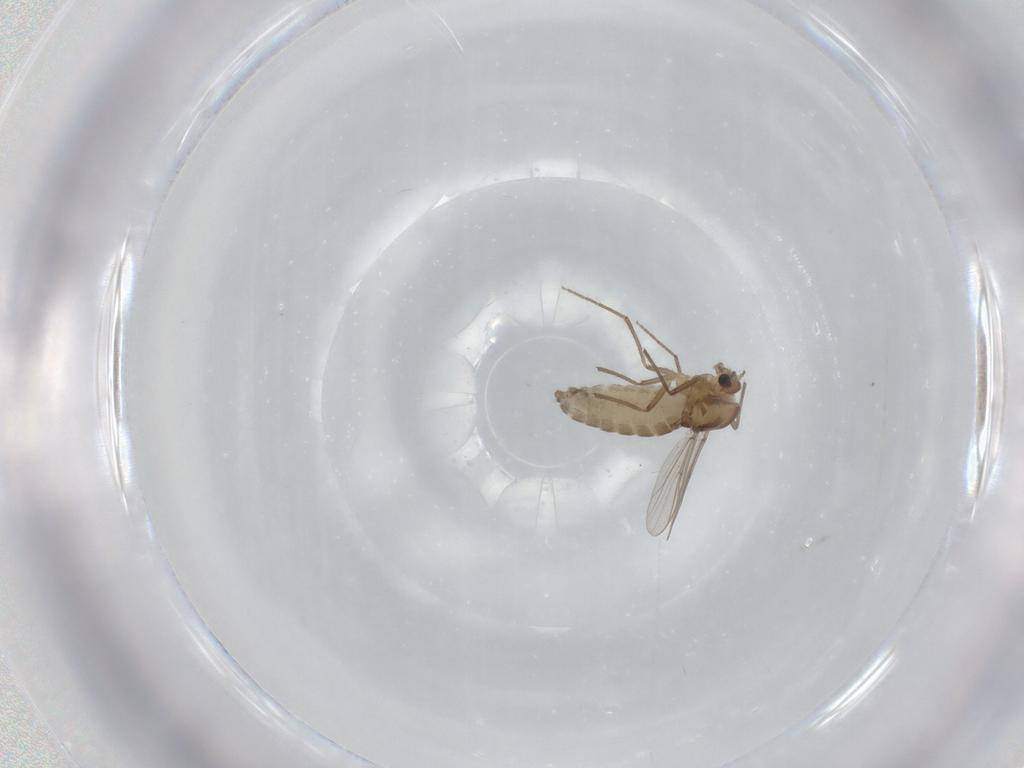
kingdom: Animalia
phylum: Arthropoda
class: Insecta
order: Diptera
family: Chironomidae
